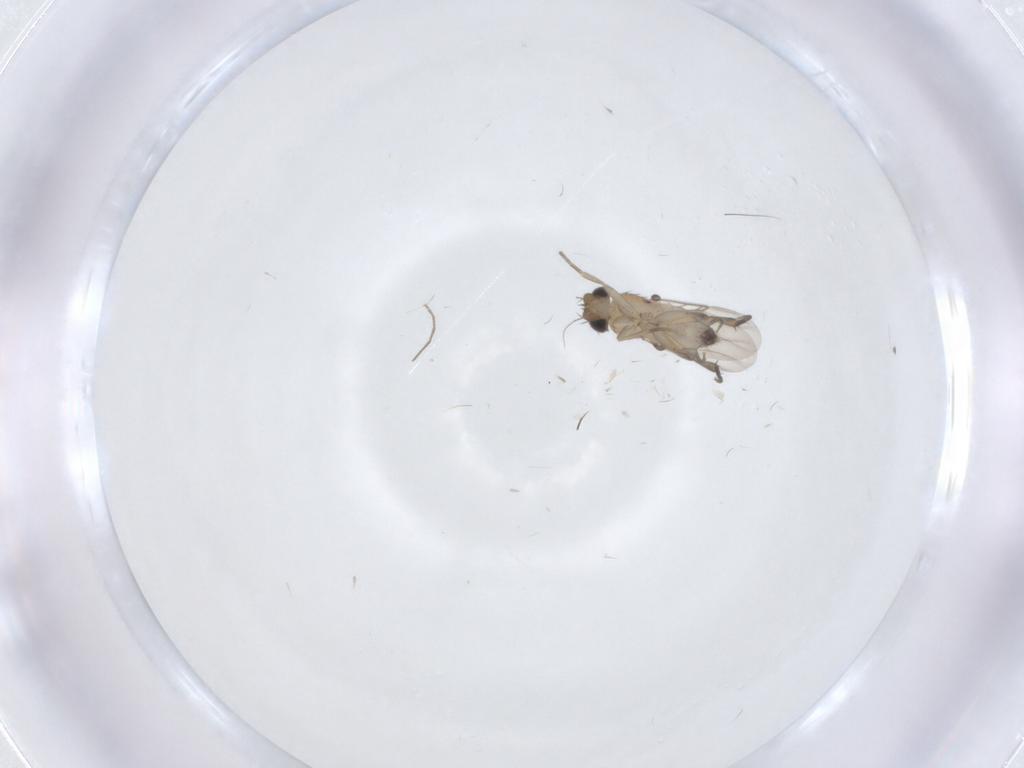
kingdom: Animalia
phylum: Arthropoda
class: Insecta
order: Diptera
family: Phoridae
